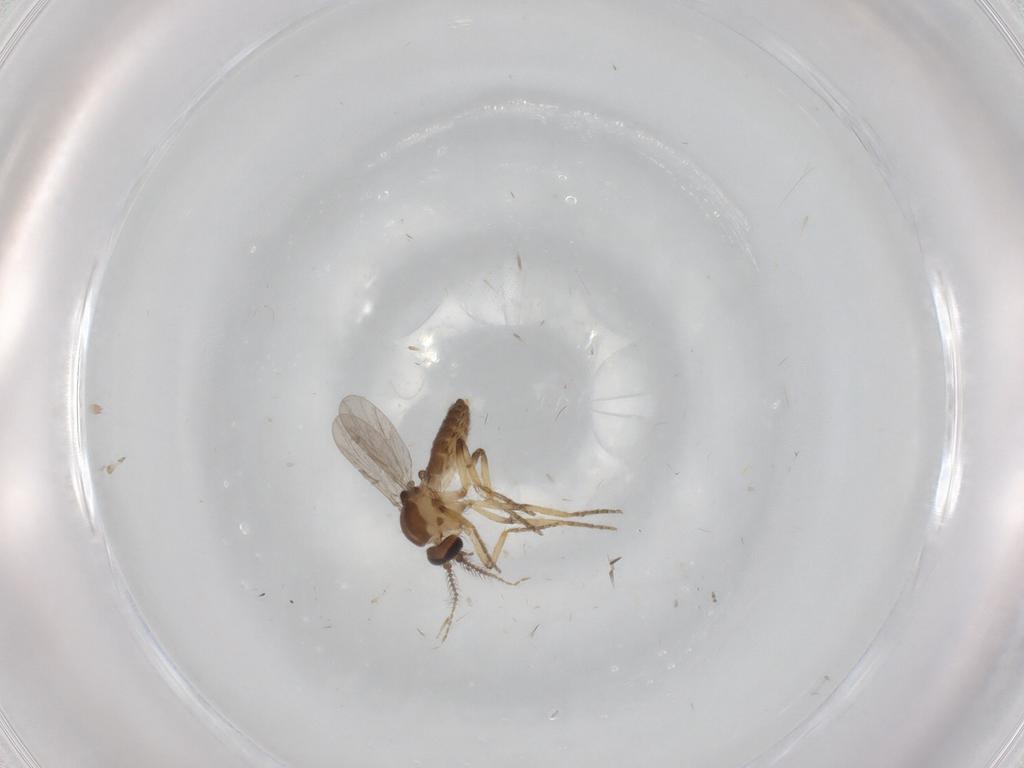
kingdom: Animalia
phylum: Arthropoda
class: Insecta
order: Diptera
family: Ceratopogonidae
